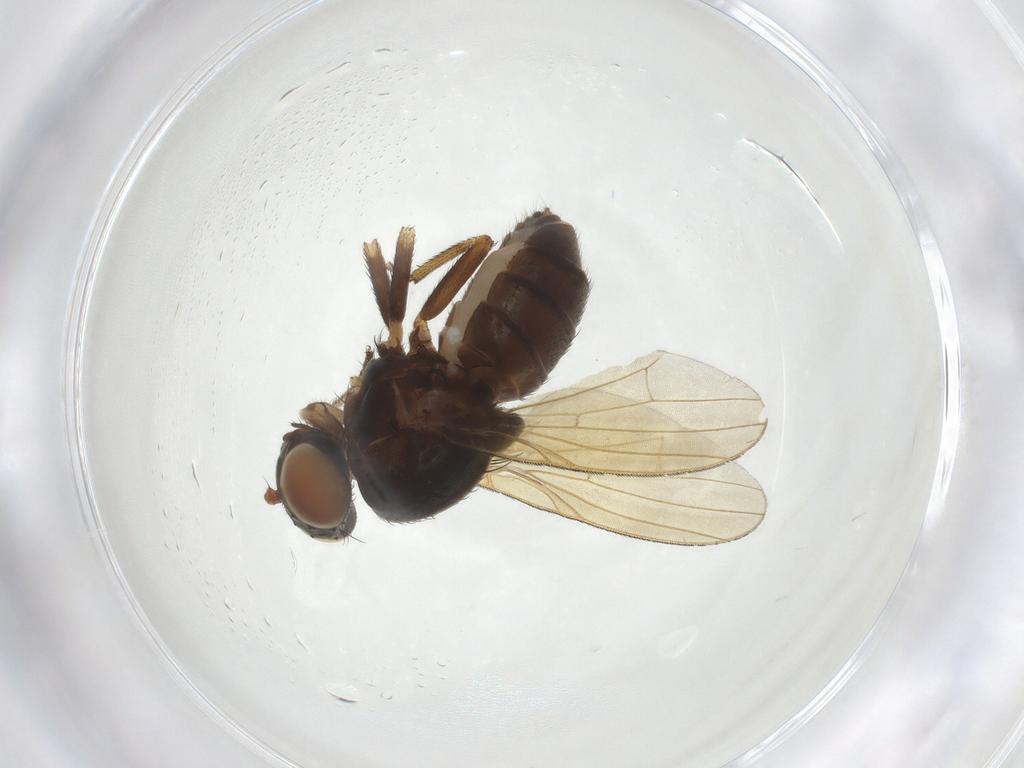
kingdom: Animalia
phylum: Arthropoda
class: Insecta
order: Diptera
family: Lauxaniidae
